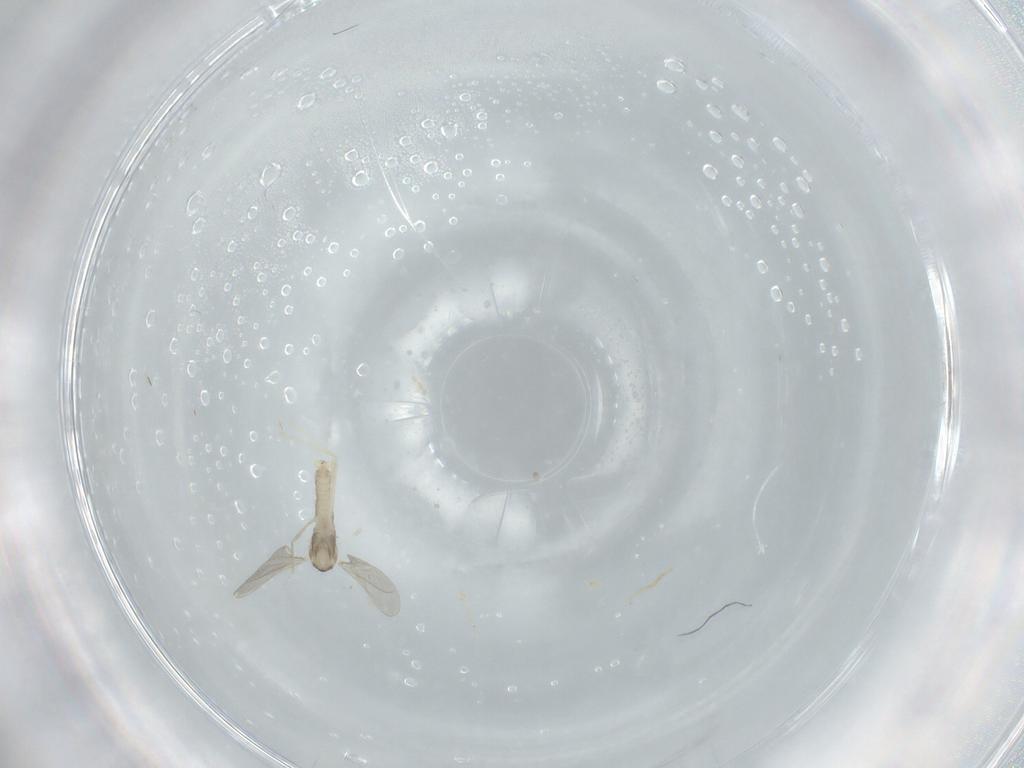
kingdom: Animalia
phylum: Arthropoda
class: Insecta
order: Diptera
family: Cecidomyiidae
